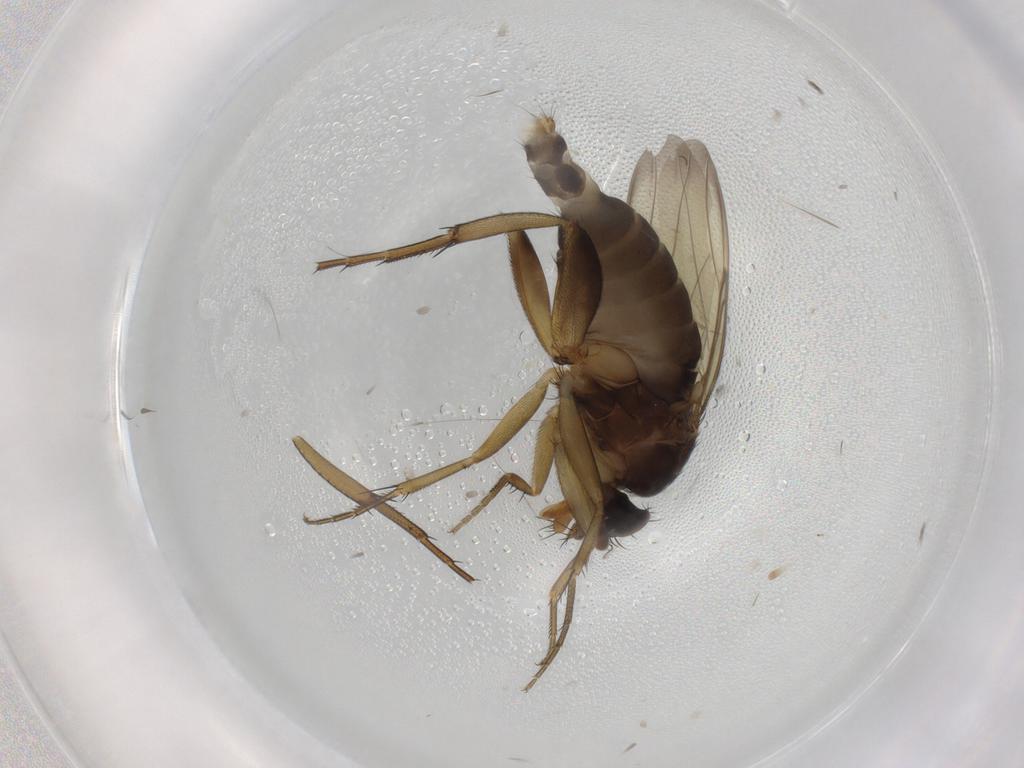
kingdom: Animalia
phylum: Arthropoda
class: Insecta
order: Diptera
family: Phoridae
